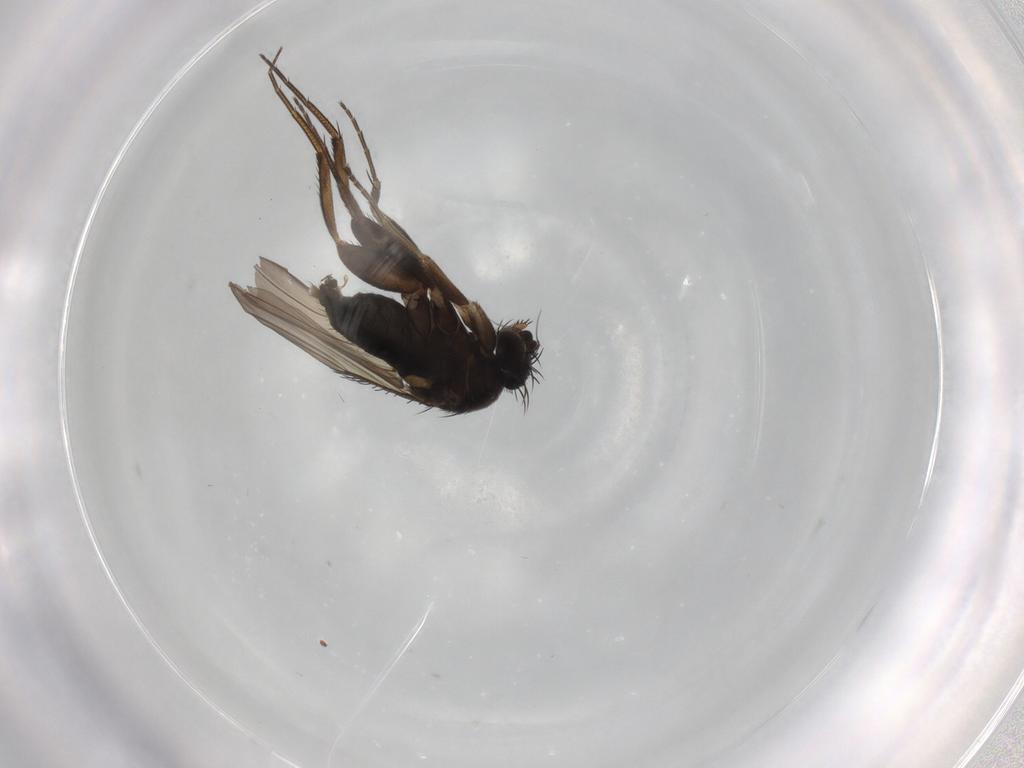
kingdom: Animalia
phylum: Arthropoda
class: Insecta
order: Diptera
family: Phoridae
